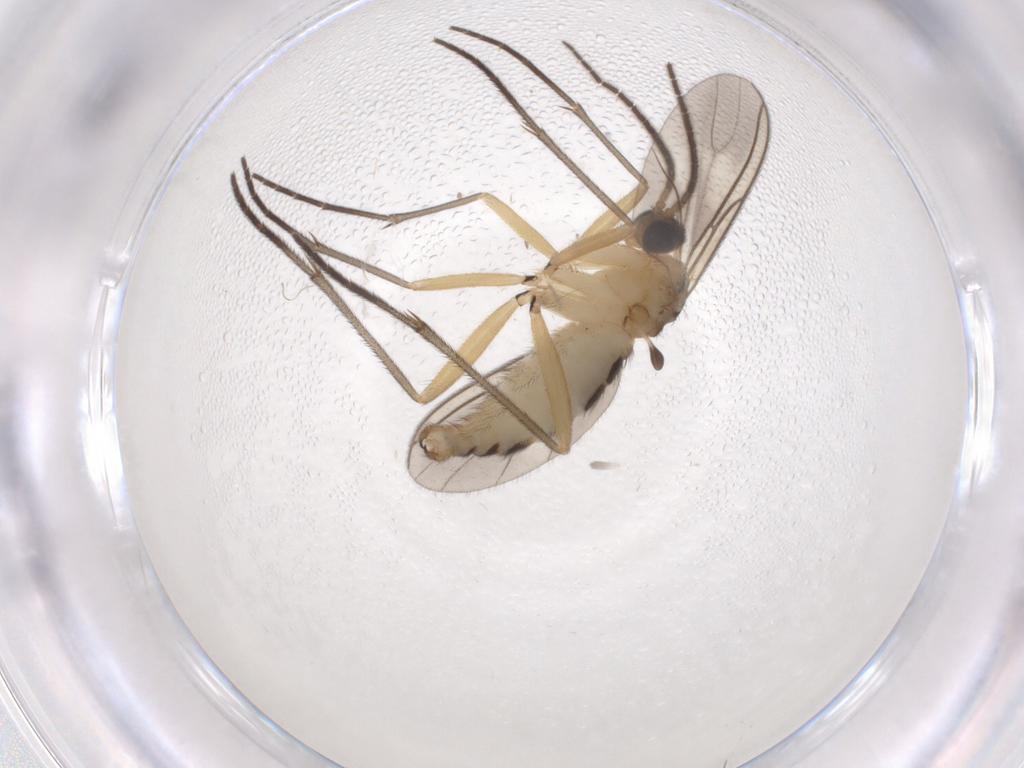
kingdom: Animalia
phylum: Arthropoda
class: Insecta
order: Diptera
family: Sciaridae
